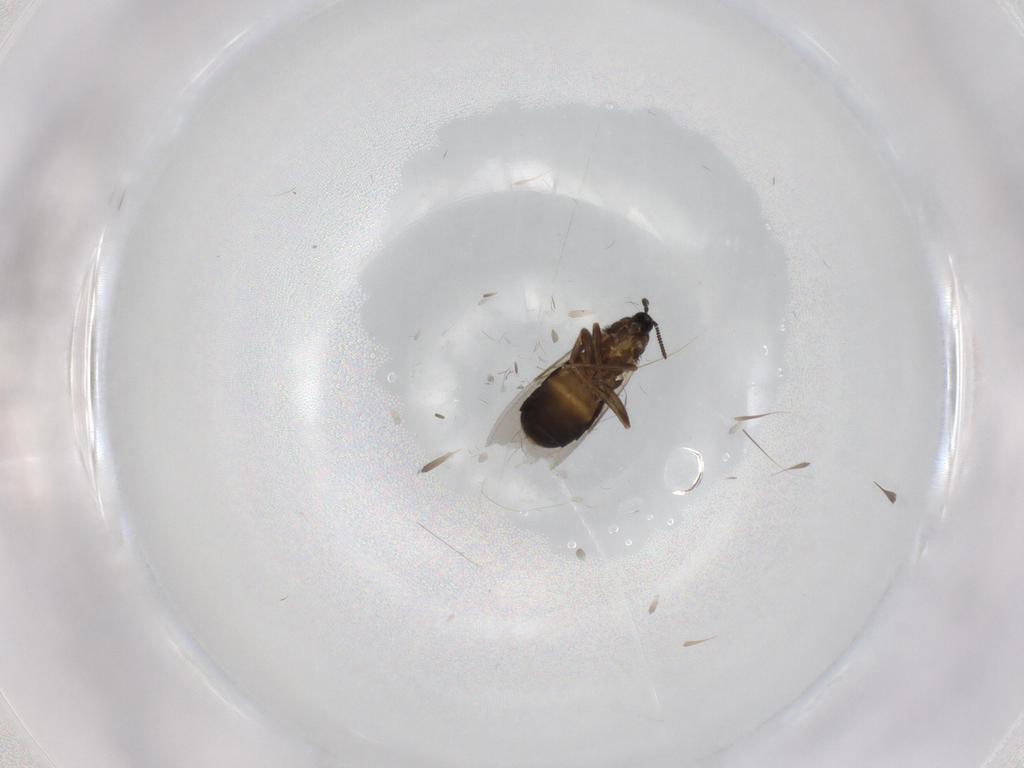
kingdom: Animalia
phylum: Arthropoda
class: Insecta
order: Diptera
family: Scatopsidae
